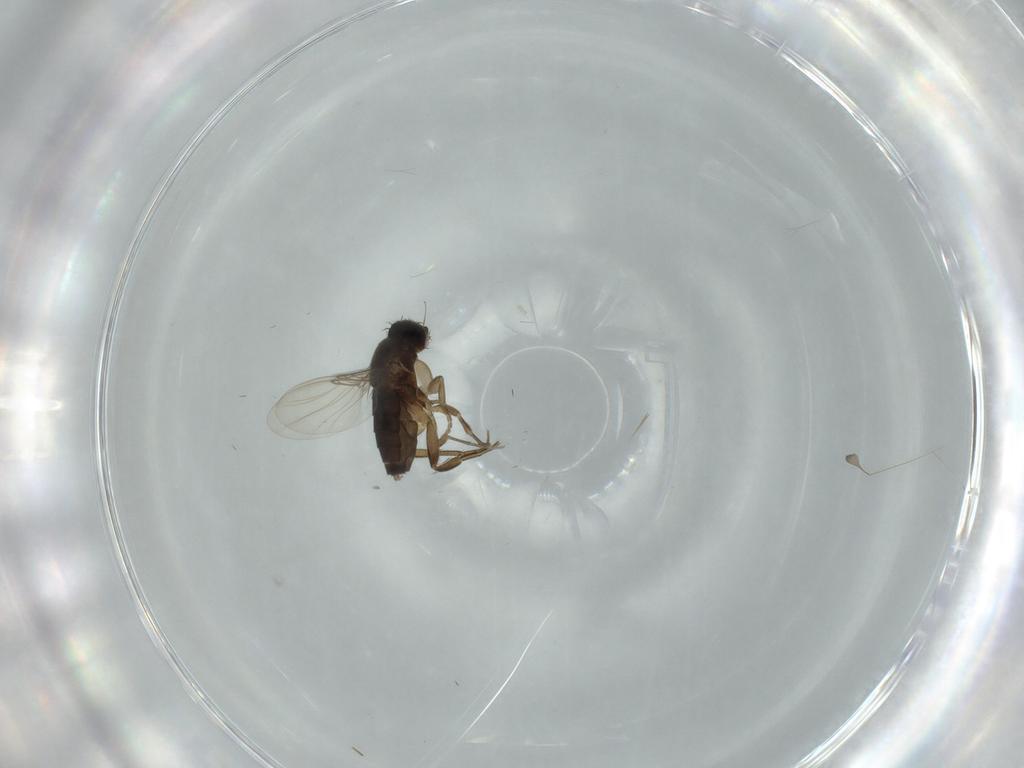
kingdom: Animalia
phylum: Arthropoda
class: Insecta
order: Diptera
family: Phoridae
